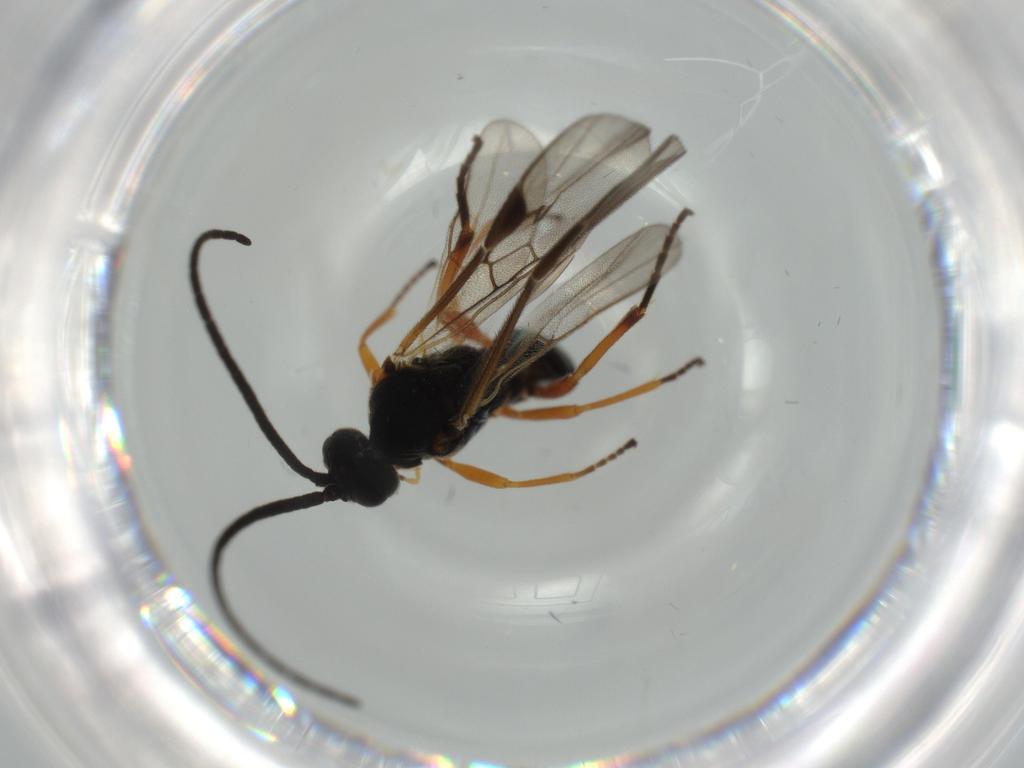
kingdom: Animalia
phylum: Arthropoda
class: Insecta
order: Hymenoptera
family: Braconidae
